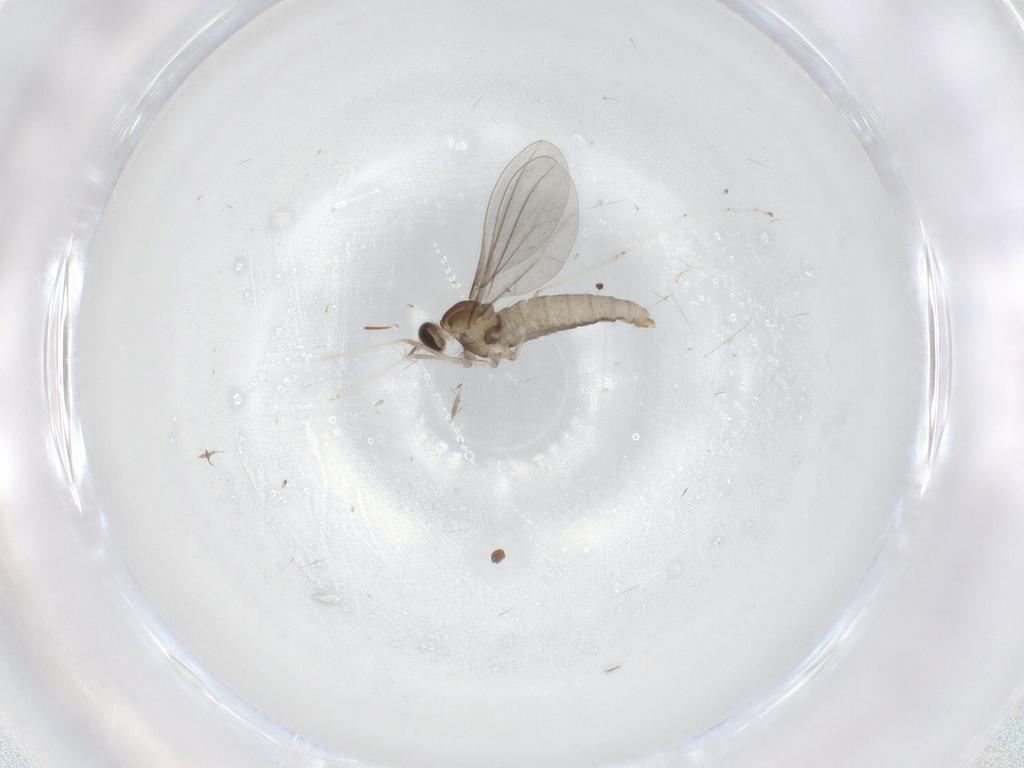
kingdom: Animalia
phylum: Arthropoda
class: Insecta
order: Diptera
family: Cecidomyiidae
